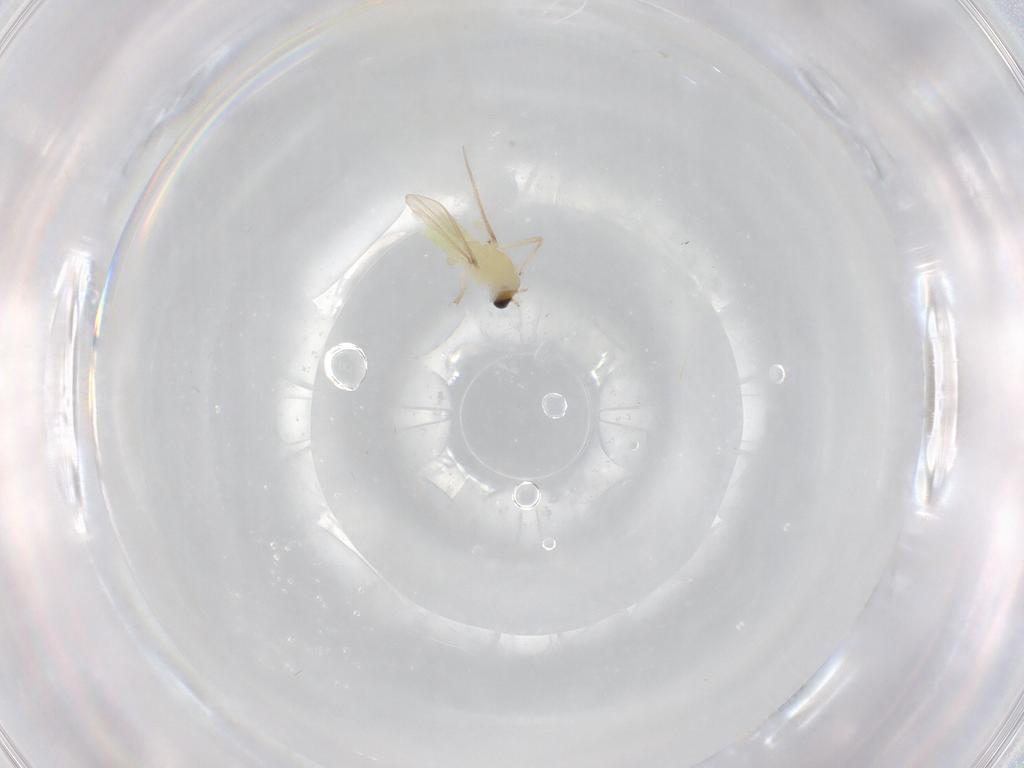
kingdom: Animalia
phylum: Arthropoda
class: Insecta
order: Diptera
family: Chironomidae
